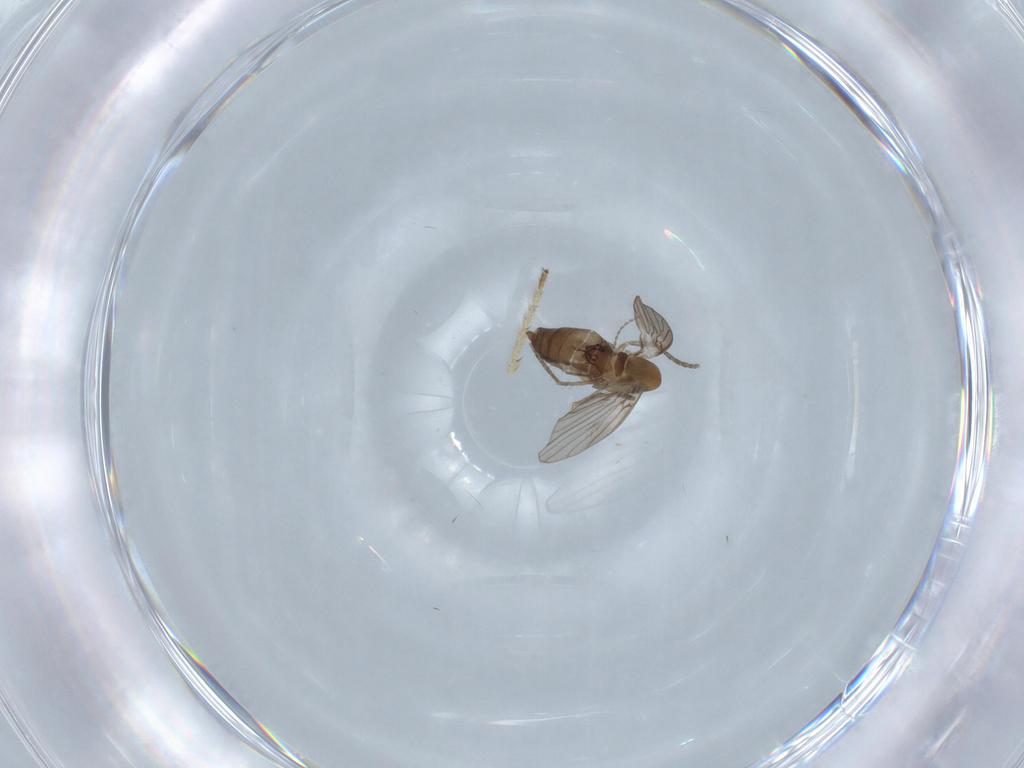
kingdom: Animalia
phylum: Arthropoda
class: Insecta
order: Diptera
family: Limoniidae
